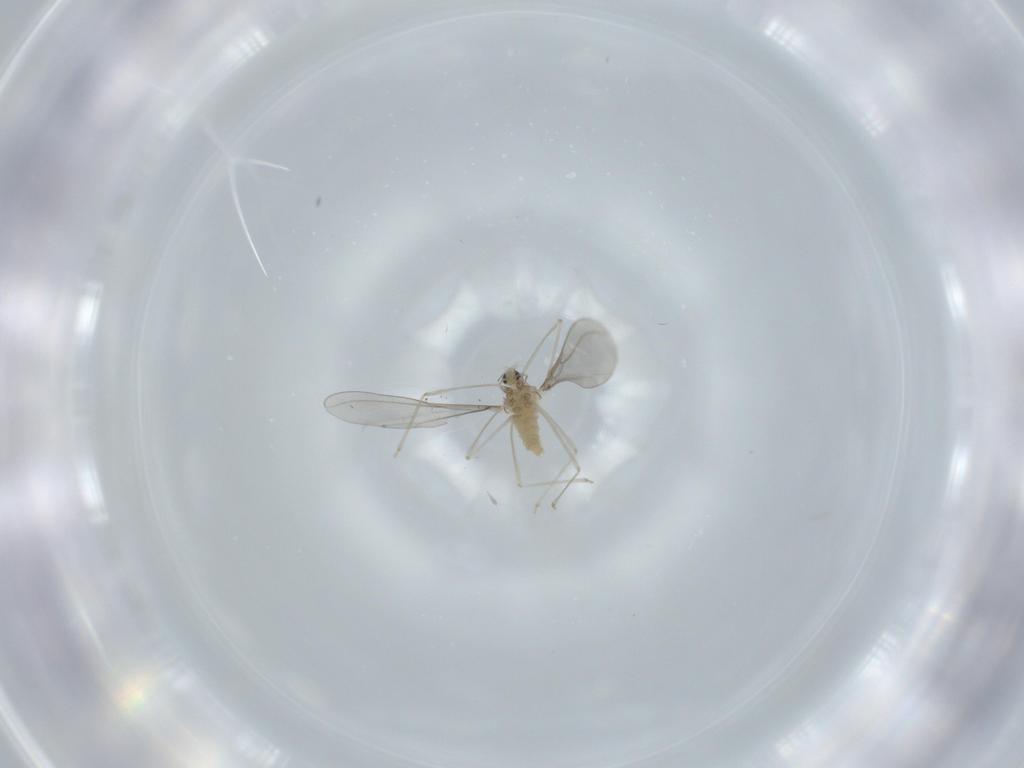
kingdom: Animalia
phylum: Arthropoda
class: Insecta
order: Diptera
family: Cecidomyiidae
